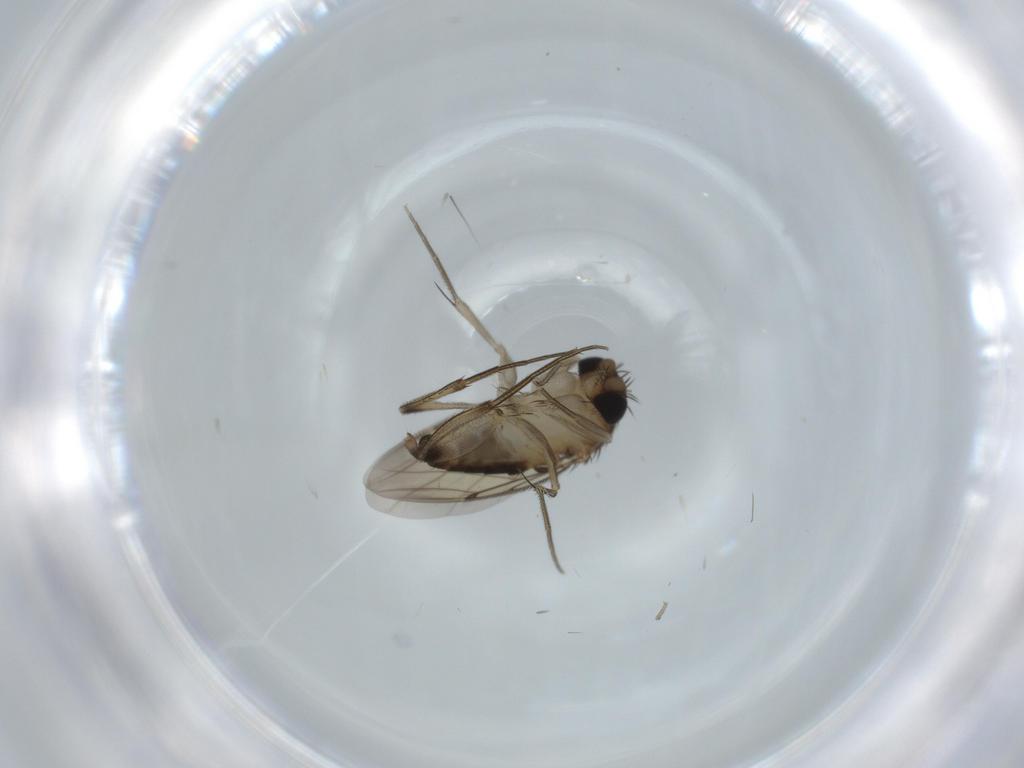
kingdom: Animalia
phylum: Arthropoda
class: Insecta
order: Diptera
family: Phoridae
